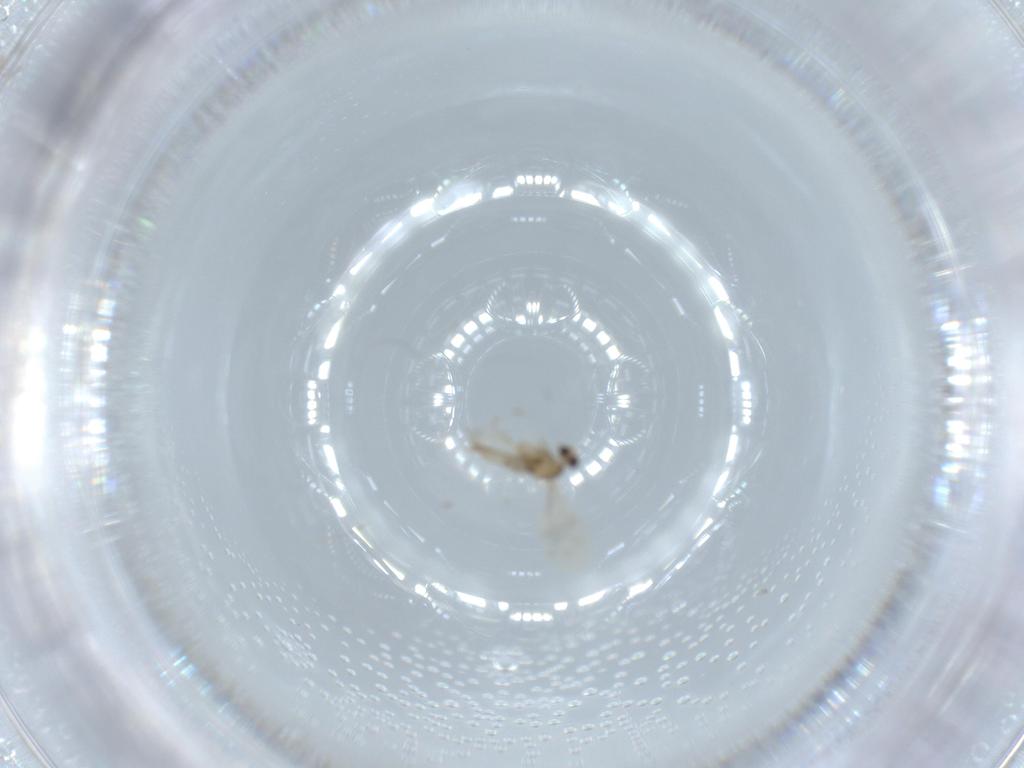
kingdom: Animalia
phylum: Arthropoda
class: Insecta
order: Diptera
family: Cecidomyiidae
